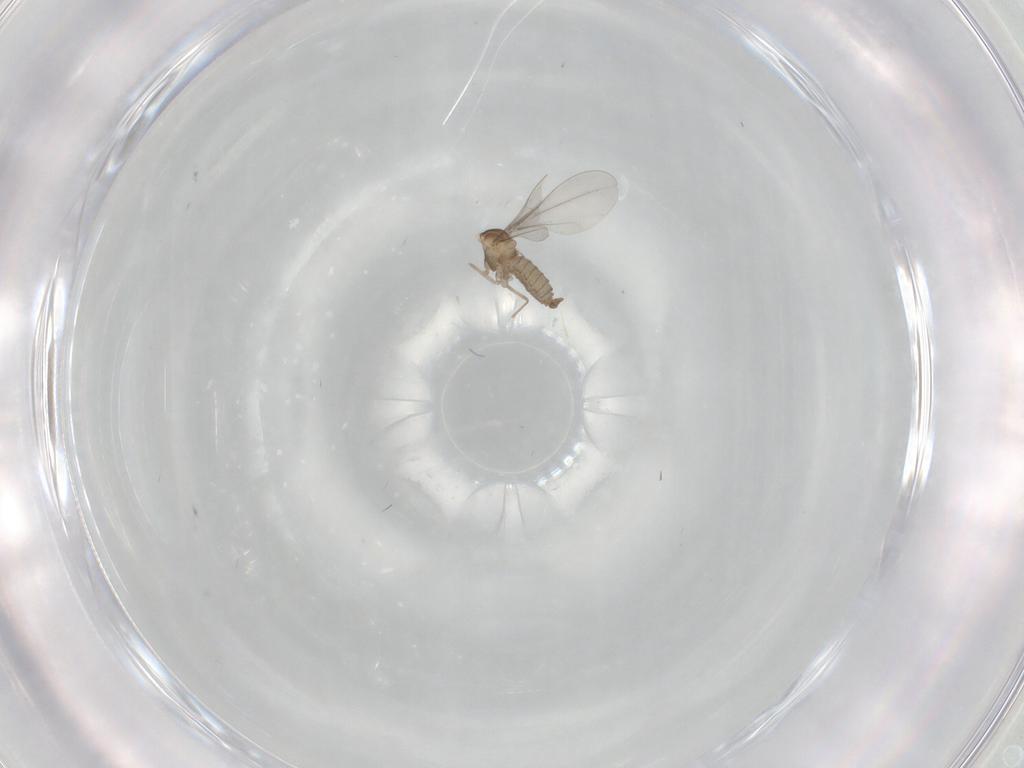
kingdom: Animalia
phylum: Arthropoda
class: Insecta
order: Diptera
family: Cecidomyiidae
